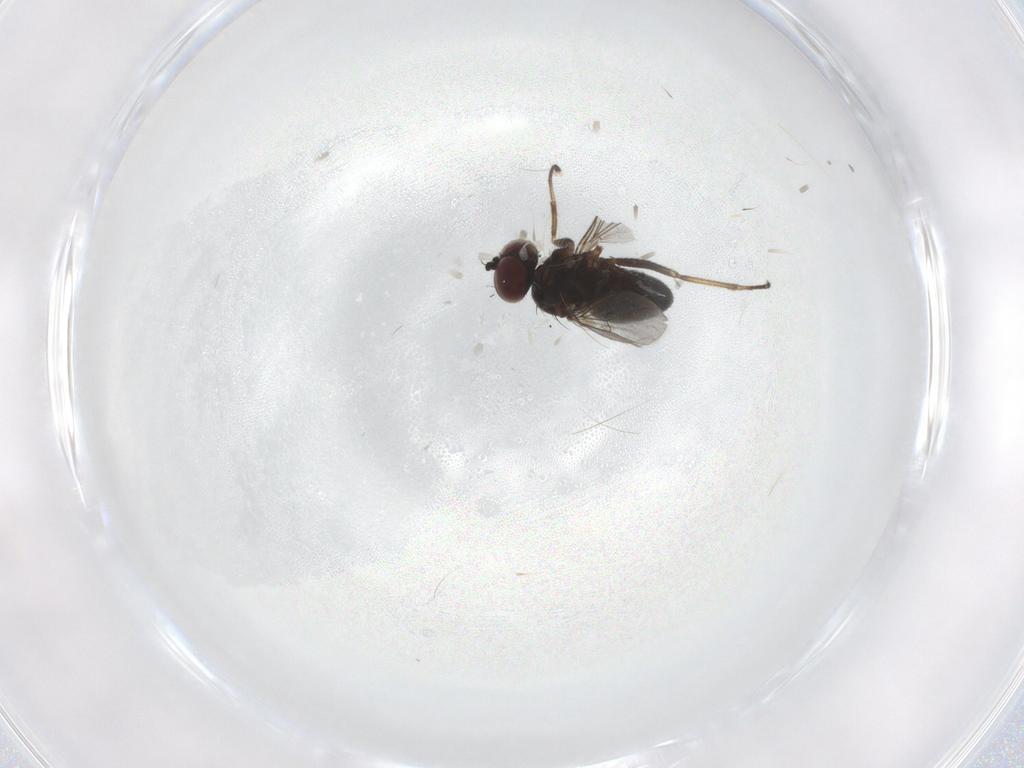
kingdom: Animalia
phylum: Arthropoda
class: Insecta
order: Diptera
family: Dolichopodidae
